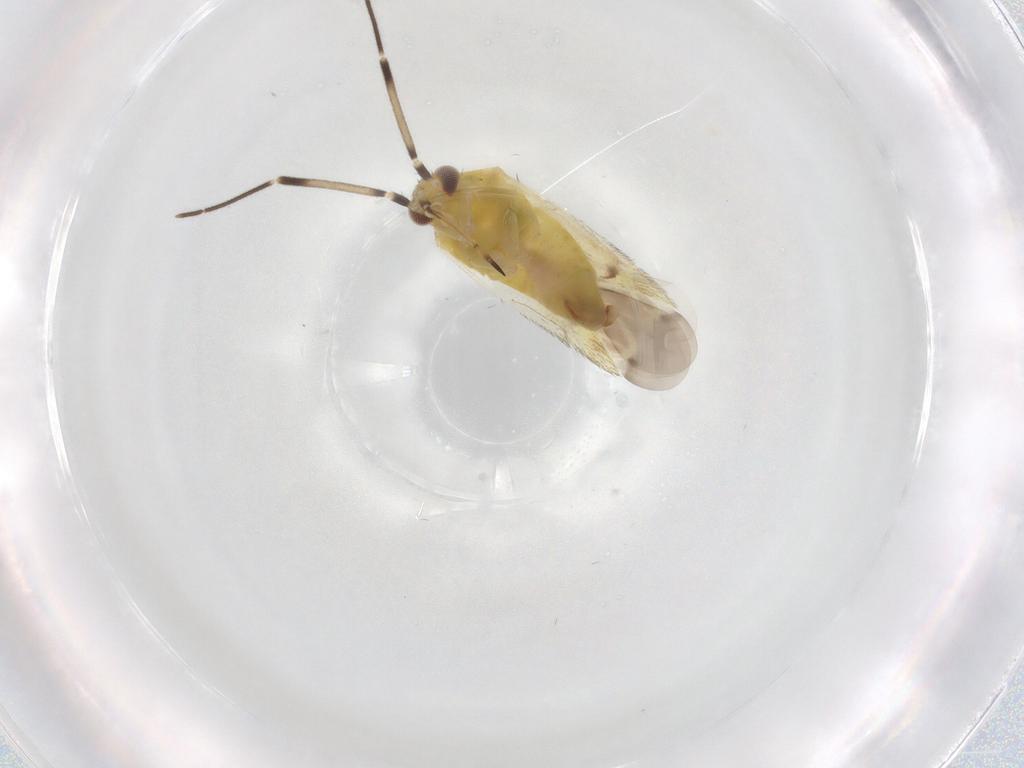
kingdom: Animalia
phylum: Arthropoda
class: Insecta
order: Hemiptera
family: Miridae
